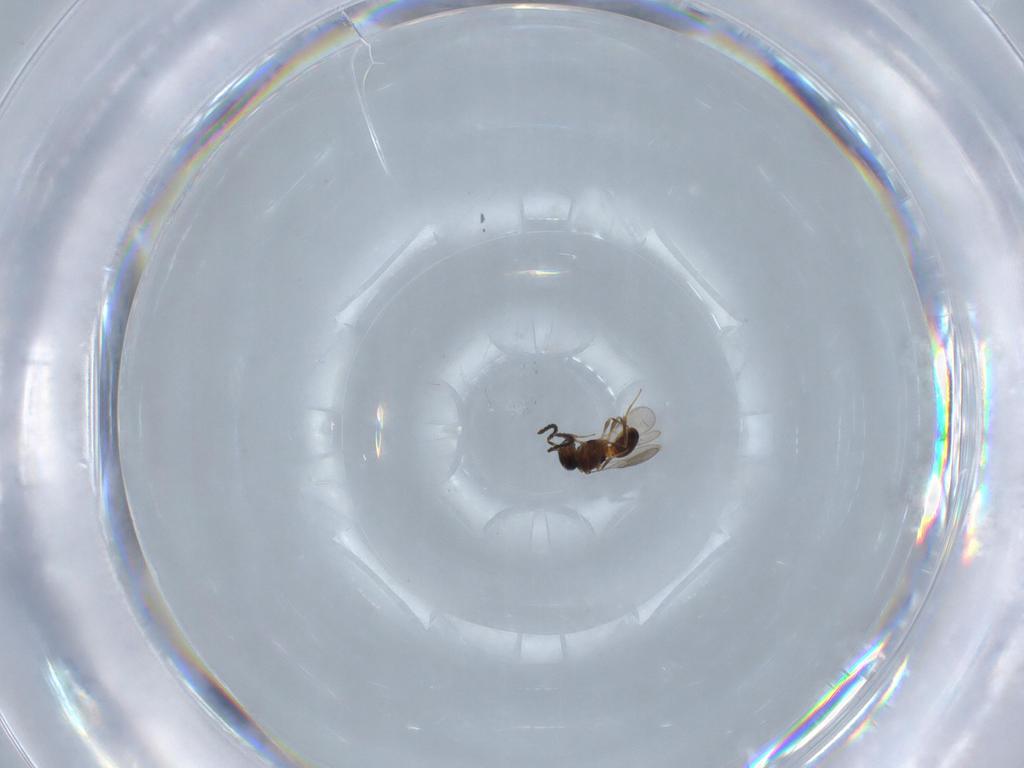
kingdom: Animalia
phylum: Arthropoda
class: Insecta
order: Hymenoptera
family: Scelionidae
